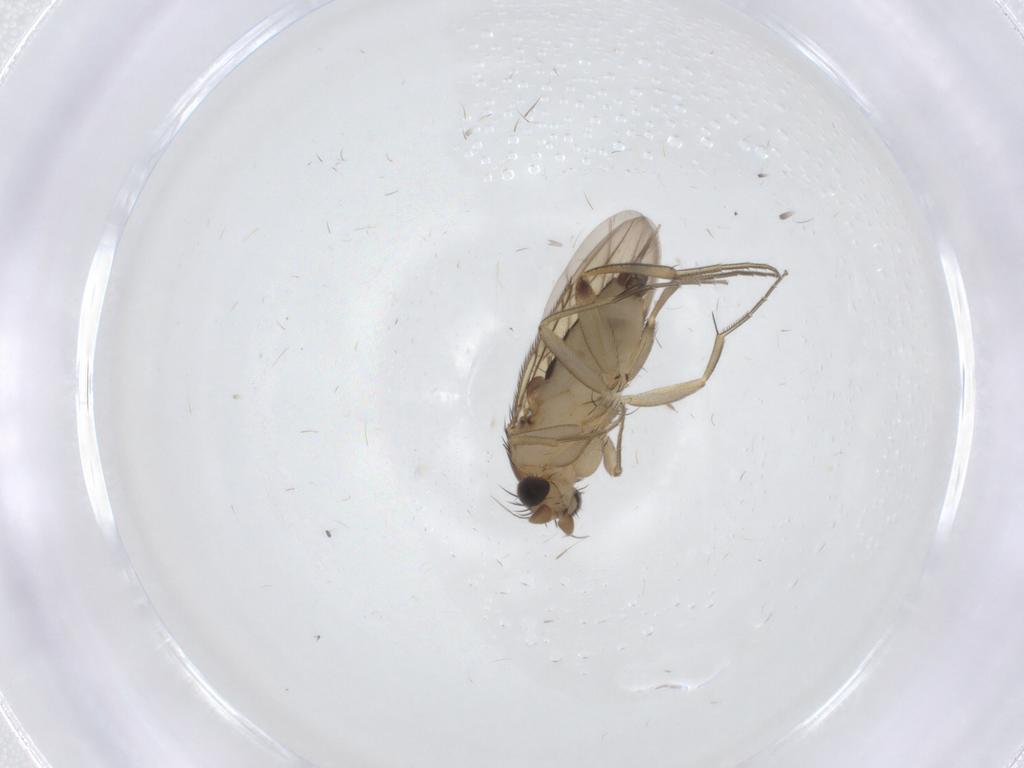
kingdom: Animalia
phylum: Arthropoda
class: Insecta
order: Diptera
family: Phoridae
